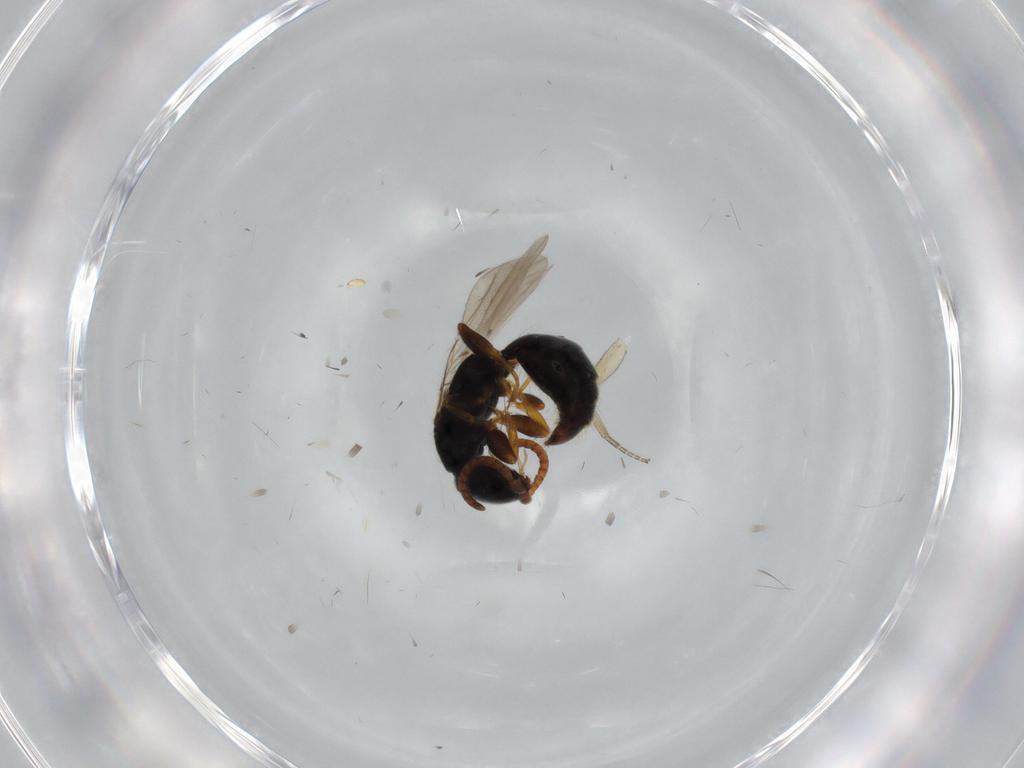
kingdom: Animalia
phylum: Arthropoda
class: Insecta
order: Hymenoptera
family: Bethylidae
